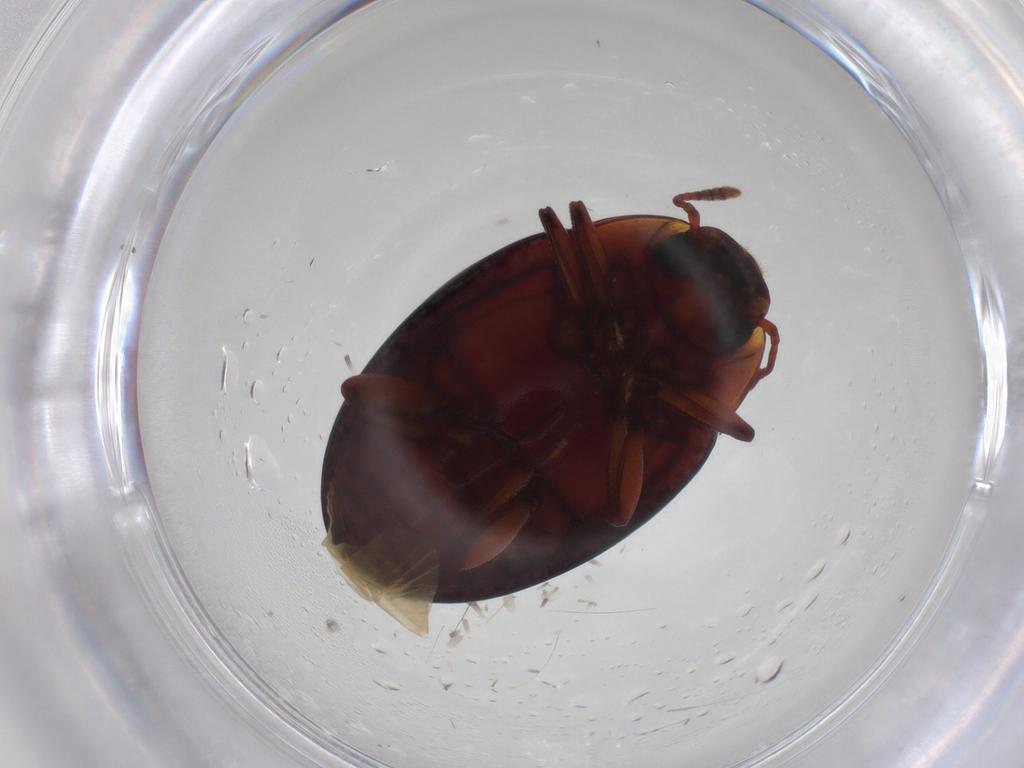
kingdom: Animalia
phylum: Arthropoda
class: Insecta
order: Coleoptera
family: Zopheridae
